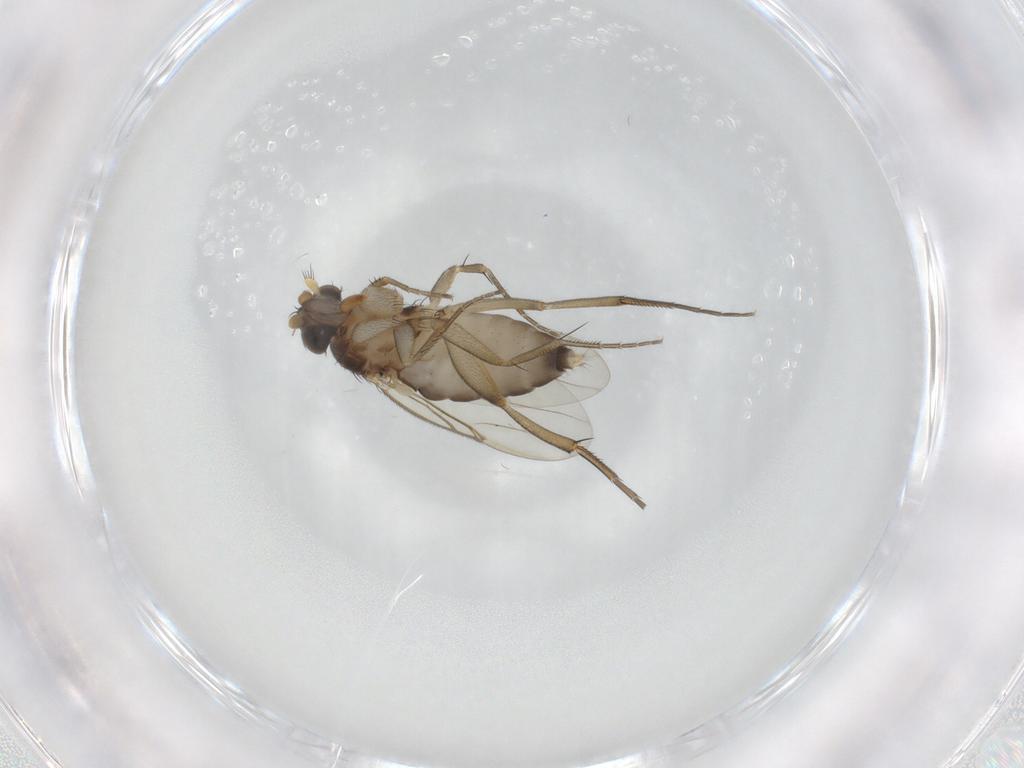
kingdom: Animalia
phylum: Arthropoda
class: Insecta
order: Diptera
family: Phoridae
